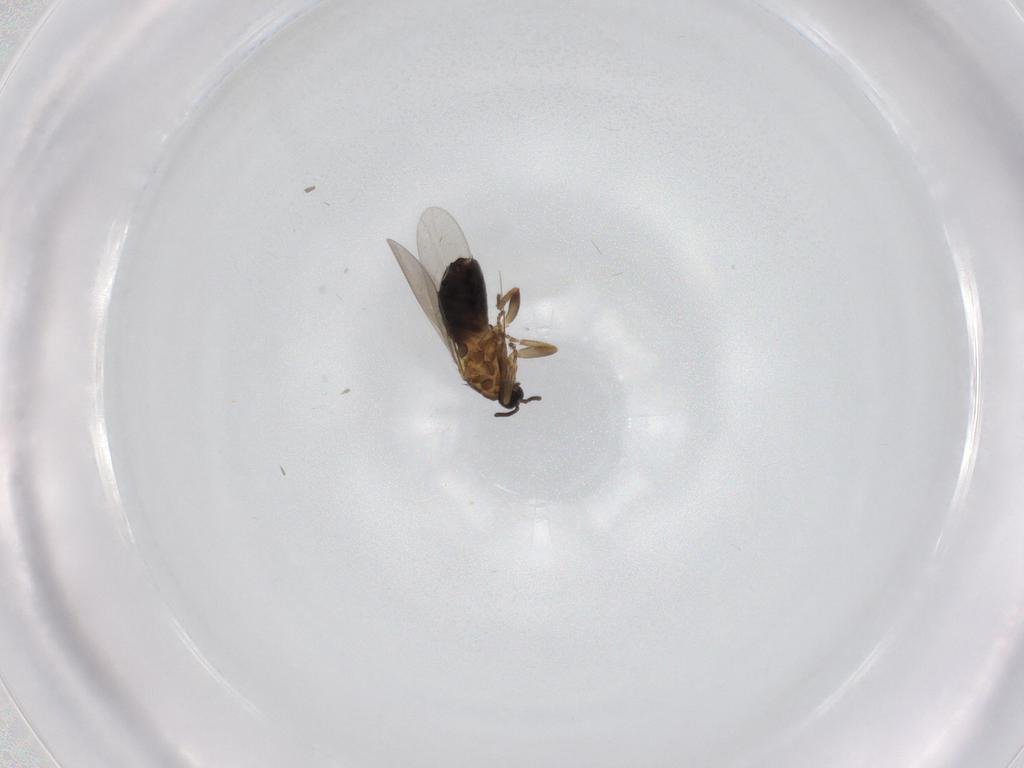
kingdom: Animalia
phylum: Arthropoda
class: Insecta
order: Diptera
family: Scatopsidae
